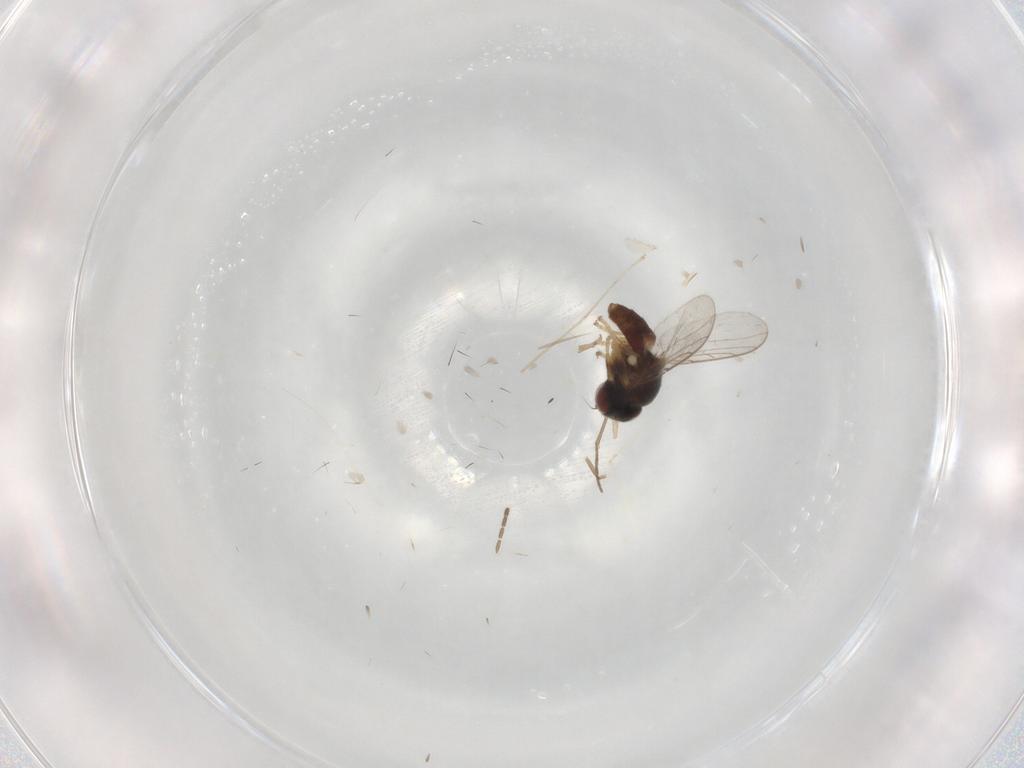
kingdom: Animalia
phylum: Arthropoda
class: Insecta
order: Diptera
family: Chloropidae
